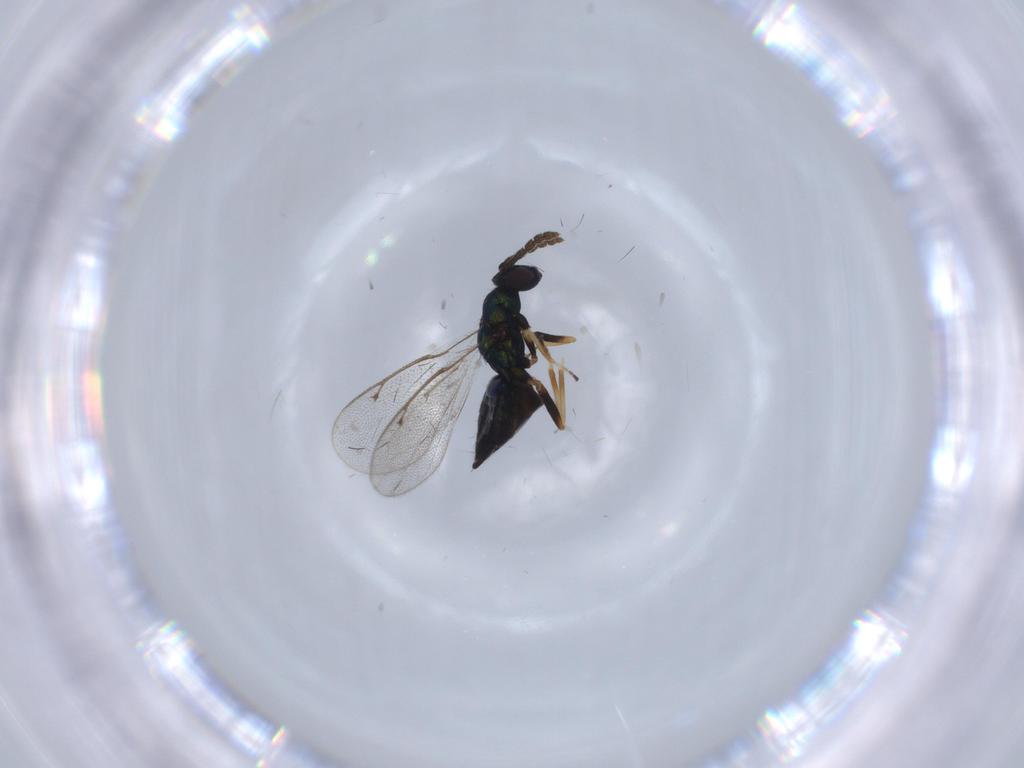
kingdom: Animalia
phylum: Arthropoda
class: Insecta
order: Hymenoptera
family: Eulophidae
